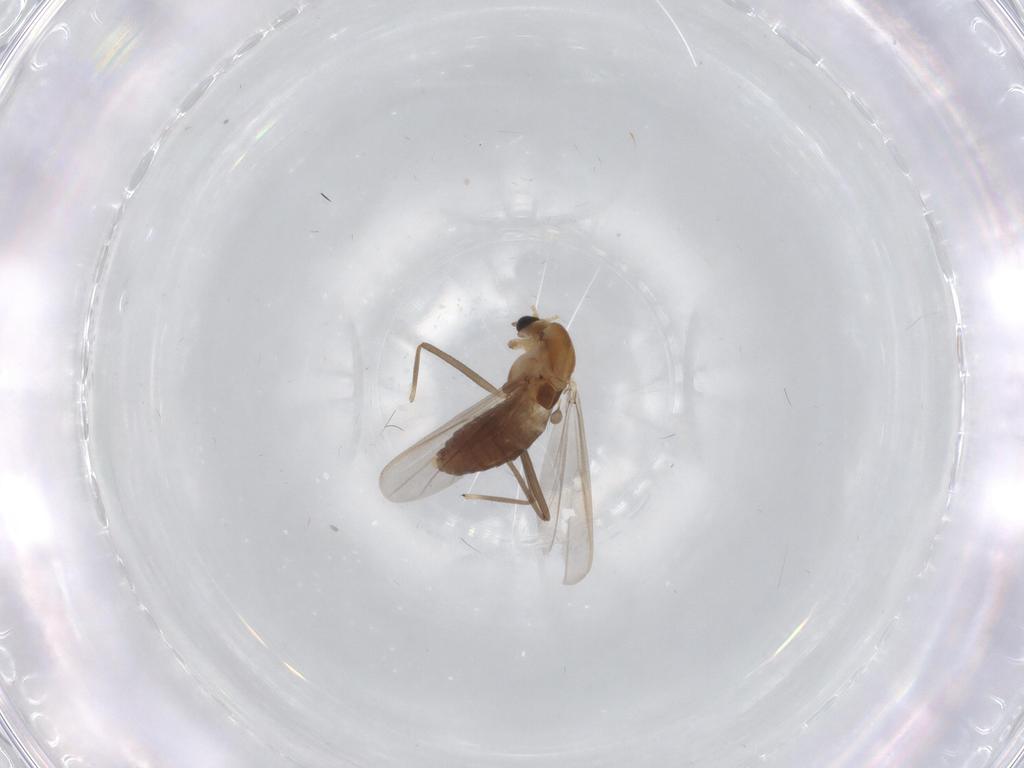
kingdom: Animalia
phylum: Arthropoda
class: Insecta
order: Diptera
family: Chironomidae
